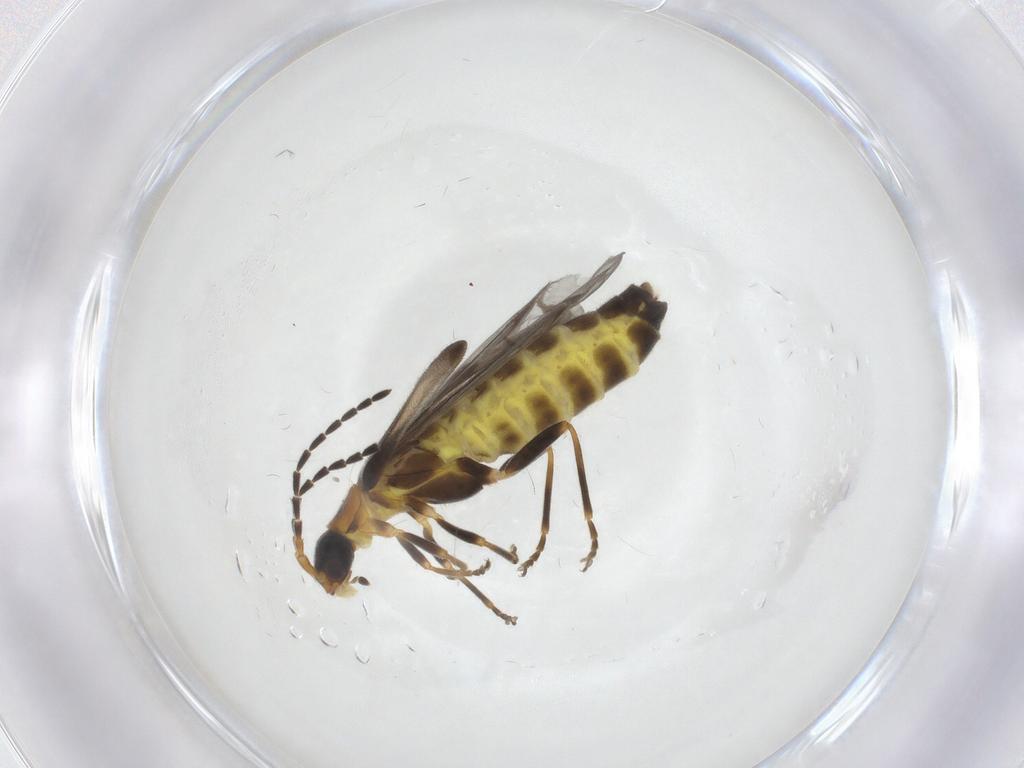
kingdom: Animalia
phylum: Arthropoda
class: Insecta
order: Coleoptera
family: Cantharidae
